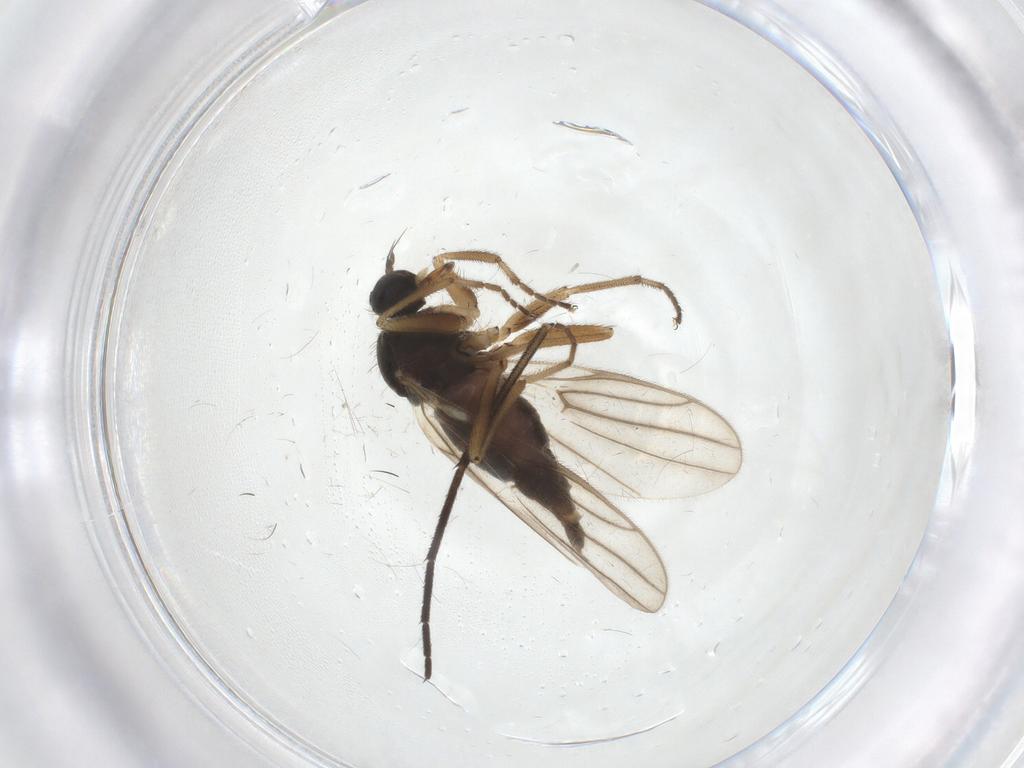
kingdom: Animalia
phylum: Arthropoda
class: Insecta
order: Diptera
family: Hybotidae
